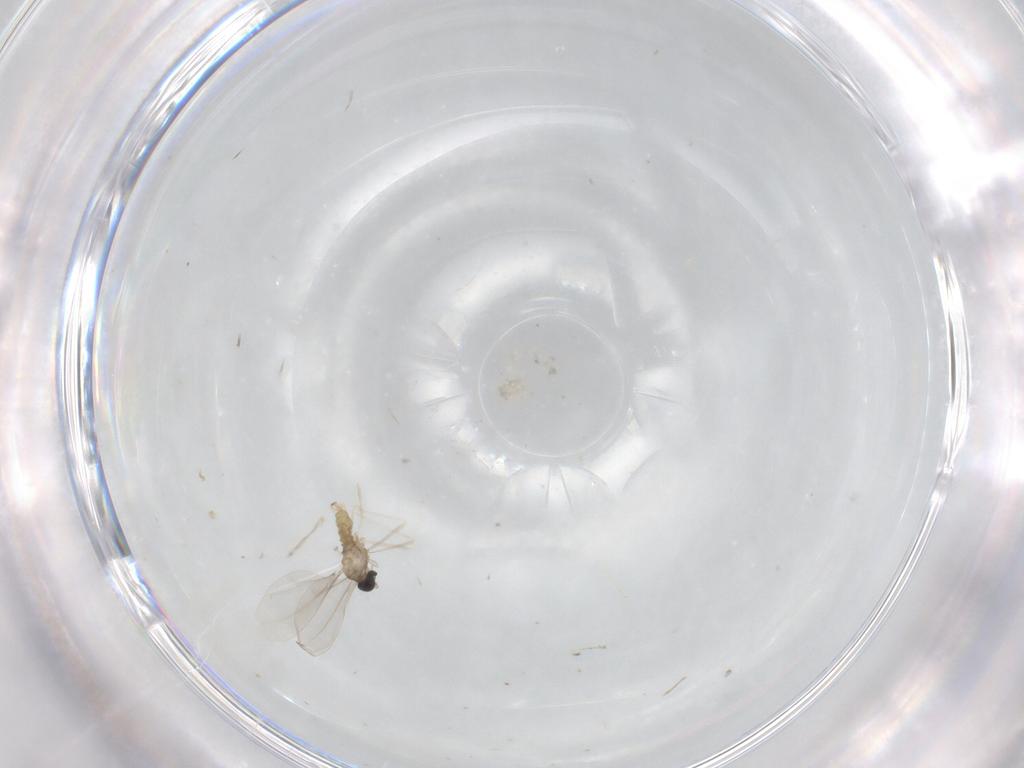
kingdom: Animalia
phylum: Arthropoda
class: Insecta
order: Diptera
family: Cecidomyiidae
